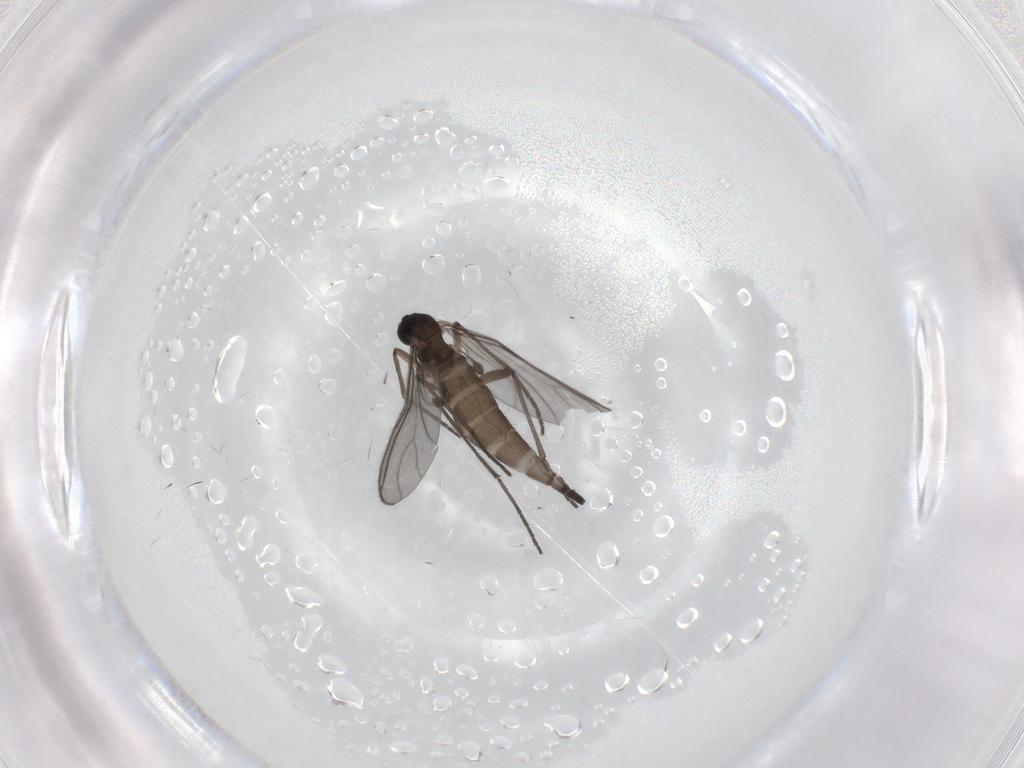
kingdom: Animalia
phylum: Arthropoda
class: Insecta
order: Diptera
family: Sciaridae
